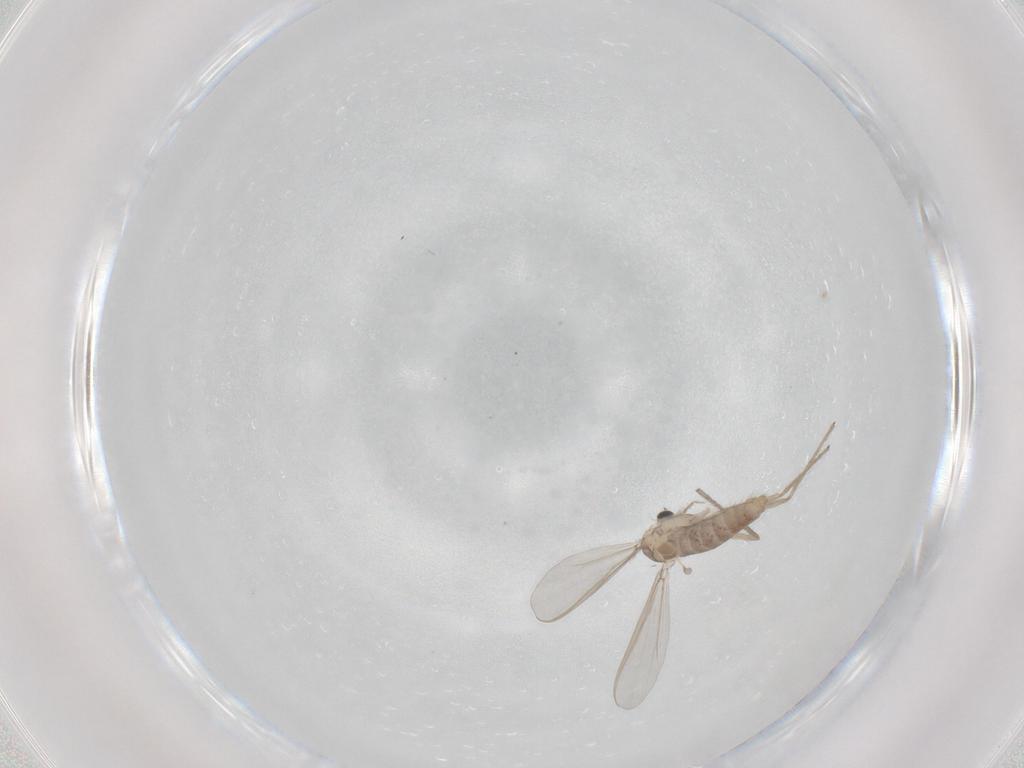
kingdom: Animalia
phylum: Arthropoda
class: Insecta
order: Diptera
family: Chironomidae
